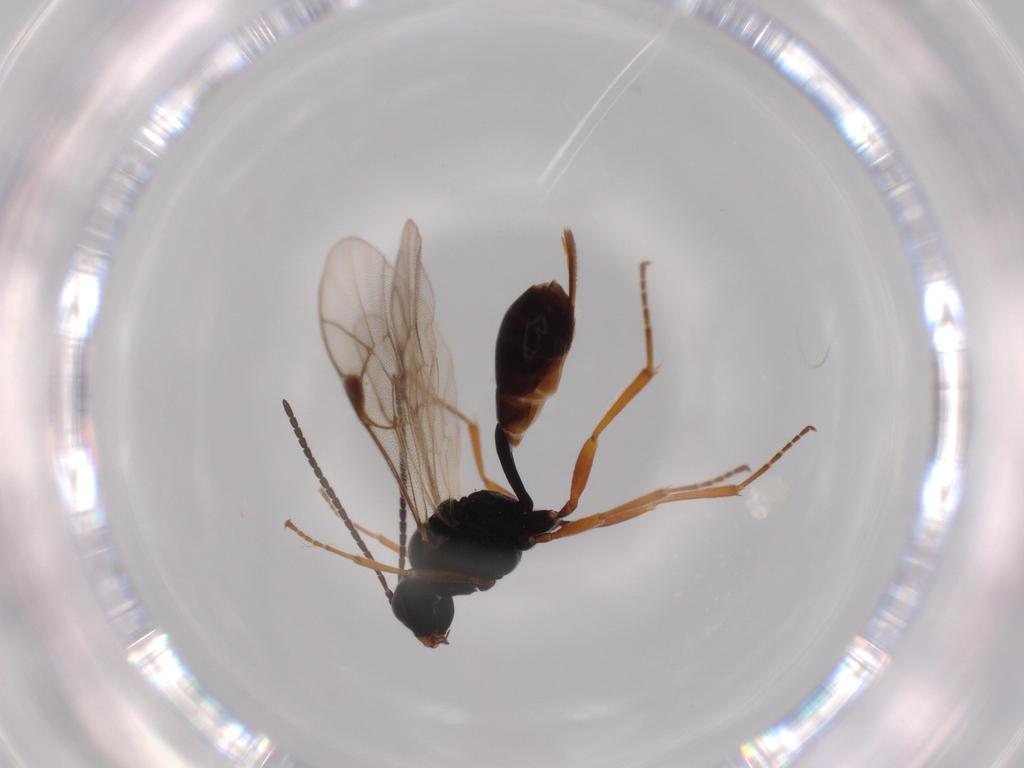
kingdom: Animalia
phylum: Arthropoda
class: Insecta
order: Hymenoptera
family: Ichneumonidae
